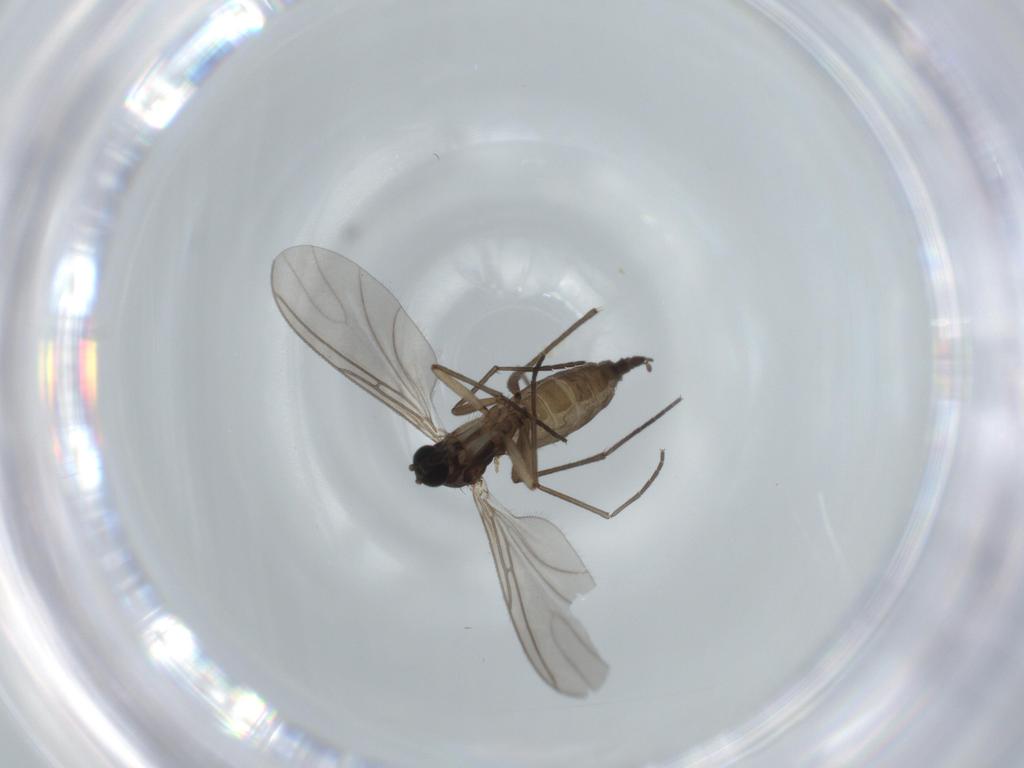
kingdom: Animalia
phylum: Arthropoda
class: Insecta
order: Diptera
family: Sciaridae
